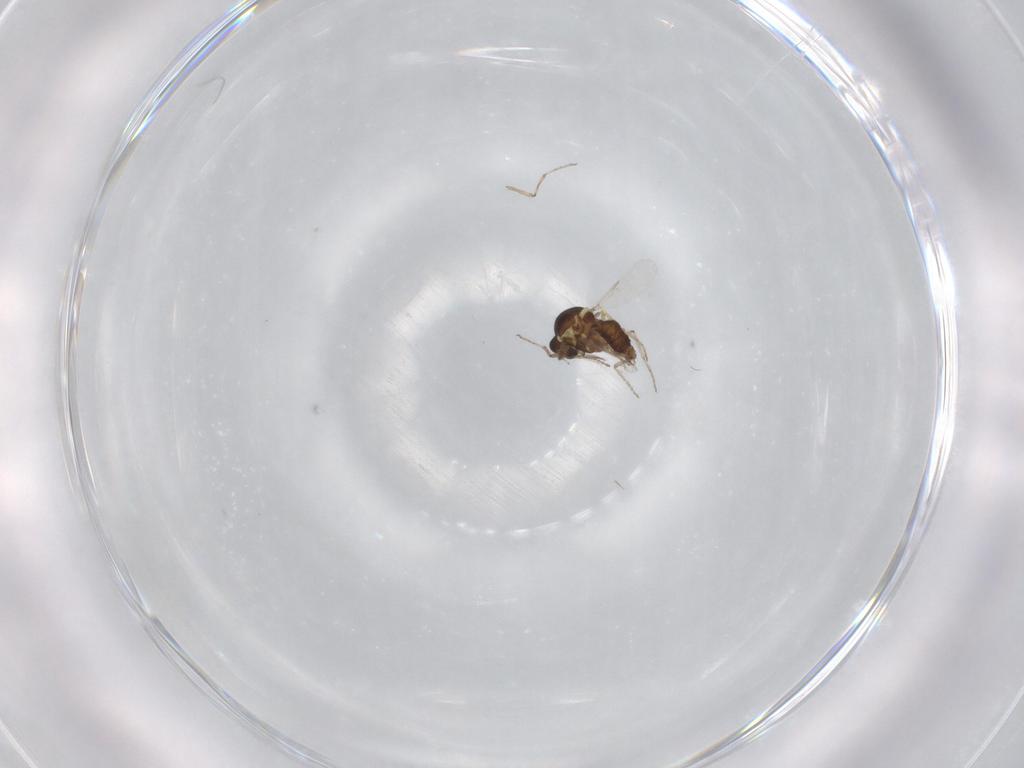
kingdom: Animalia
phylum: Arthropoda
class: Insecta
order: Diptera
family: Ceratopogonidae
